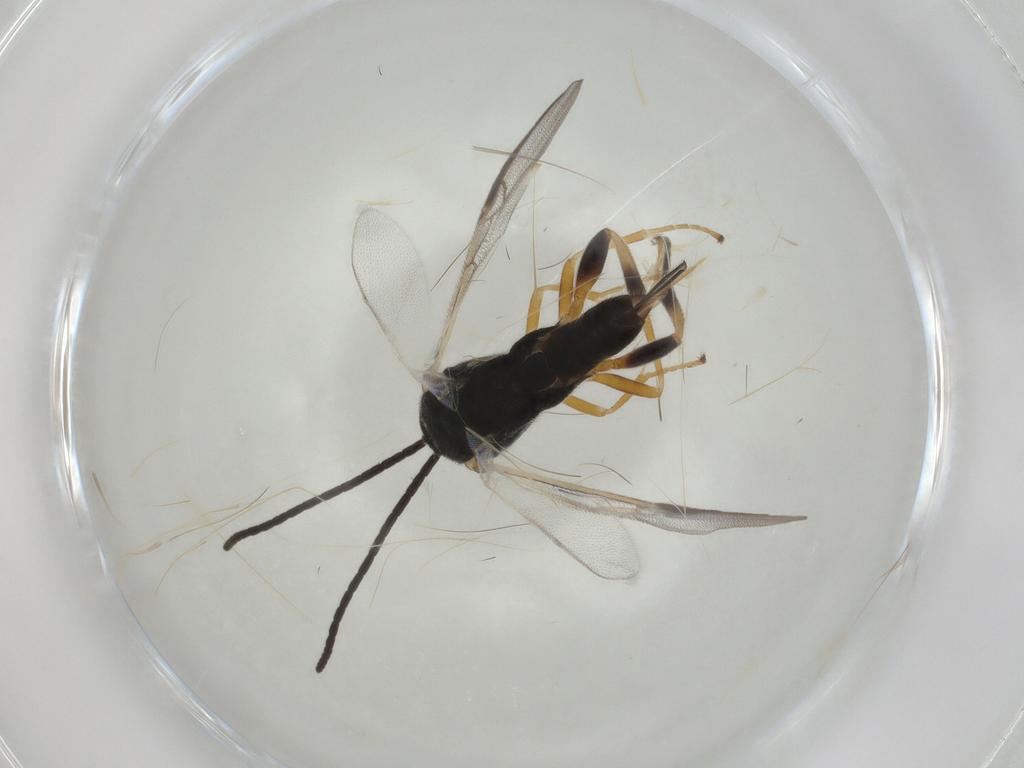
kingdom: Animalia
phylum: Arthropoda
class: Insecta
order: Hymenoptera
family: Braconidae
